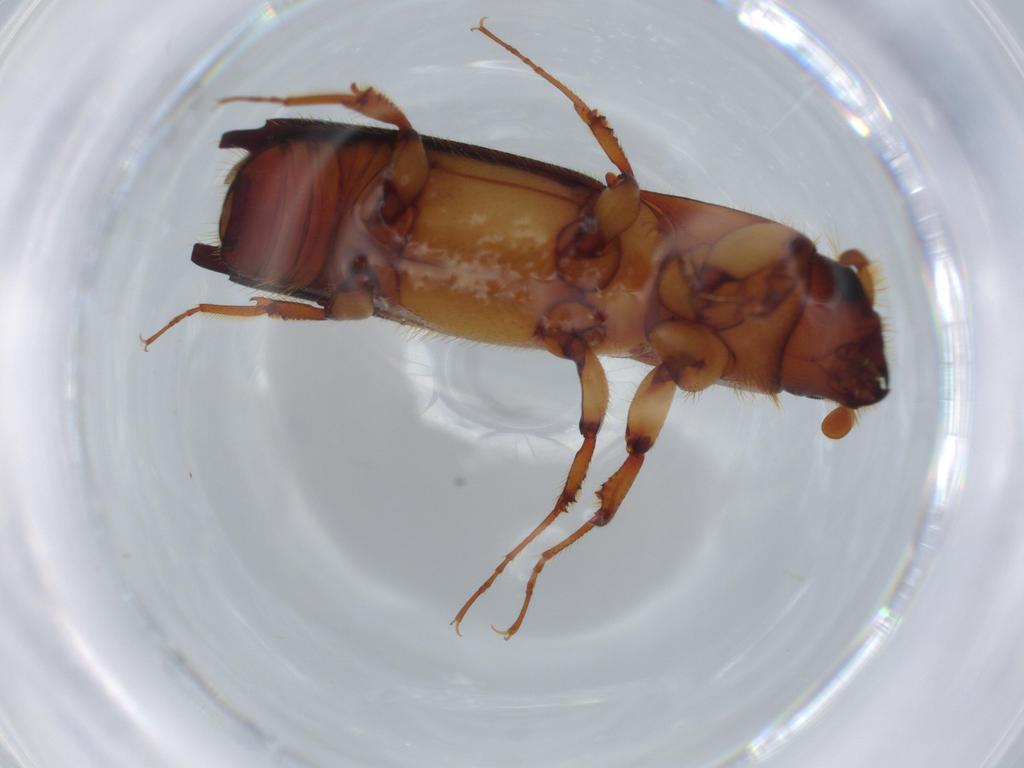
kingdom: Animalia
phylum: Arthropoda
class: Insecta
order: Coleoptera
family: Curculionidae
